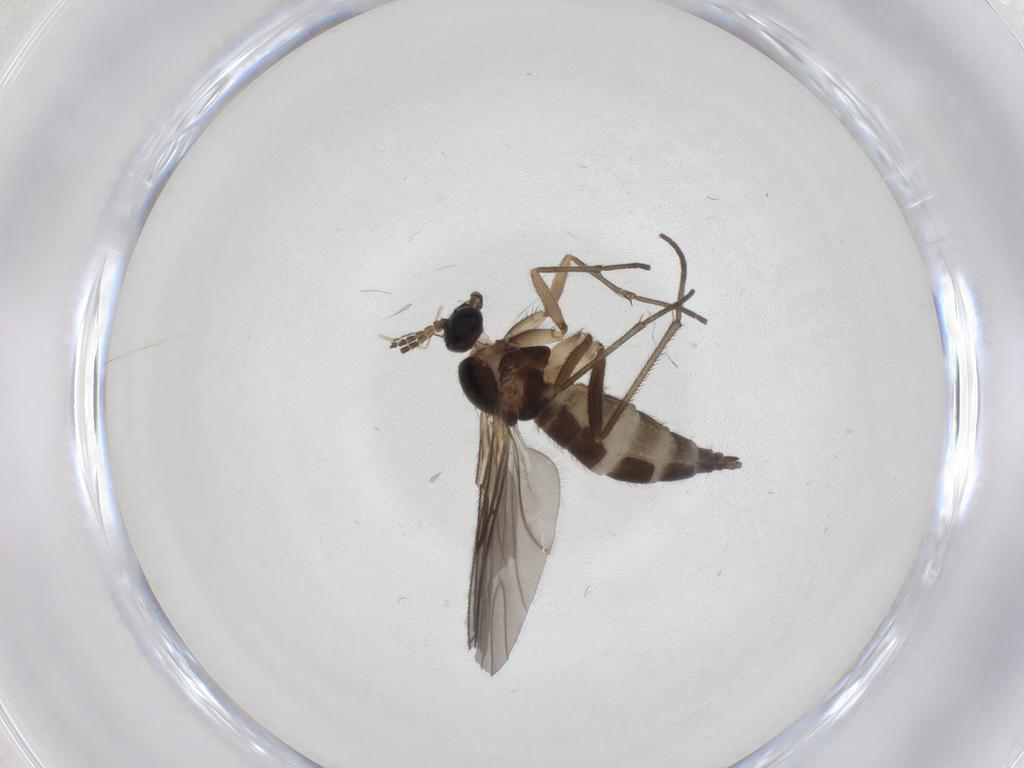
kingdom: Animalia
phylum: Arthropoda
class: Insecta
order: Diptera
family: Sciaridae
